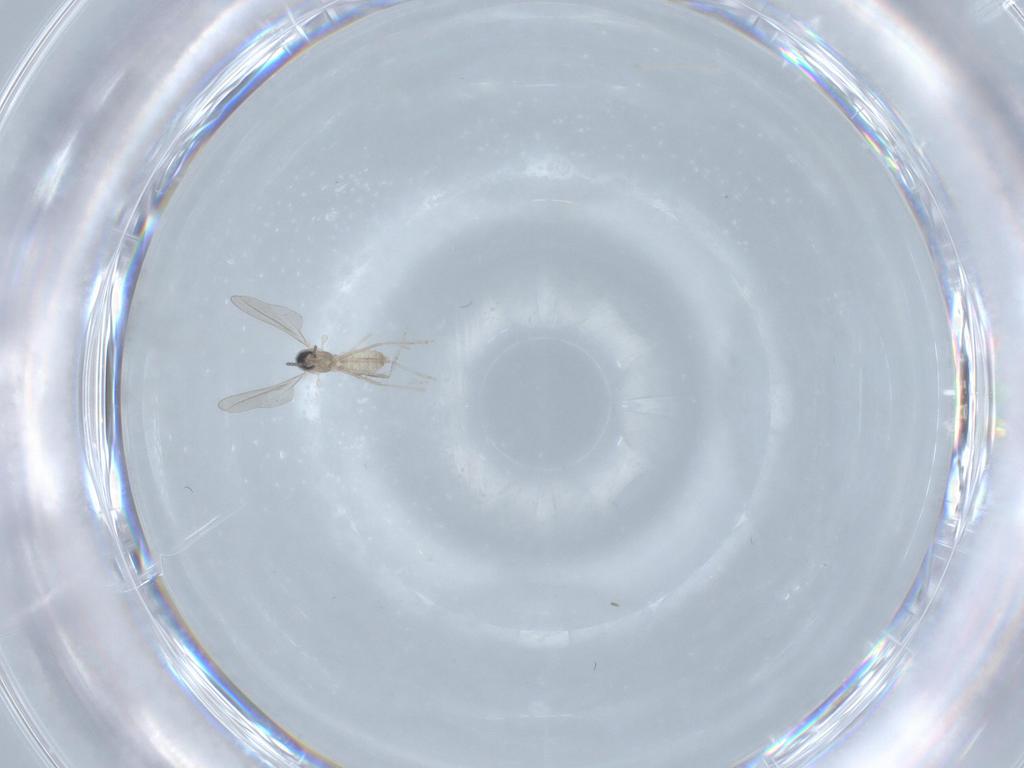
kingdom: Animalia
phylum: Arthropoda
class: Insecta
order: Diptera
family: Cecidomyiidae
